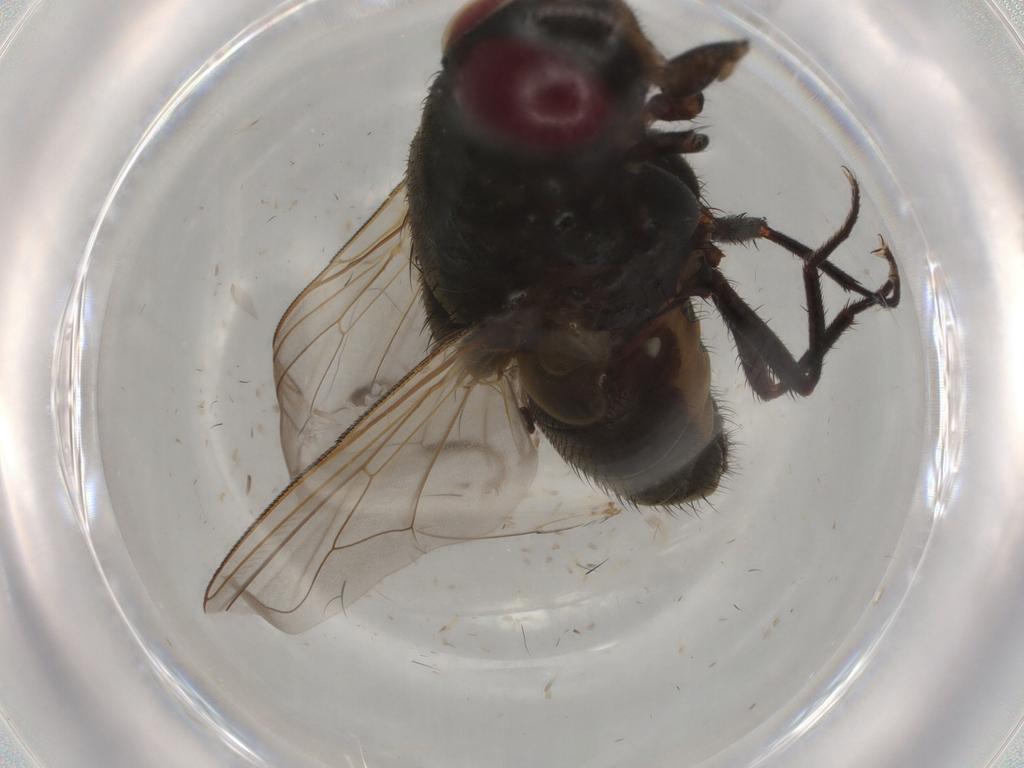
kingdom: Animalia
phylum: Arthropoda
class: Insecta
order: Diptera
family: Muscidae
